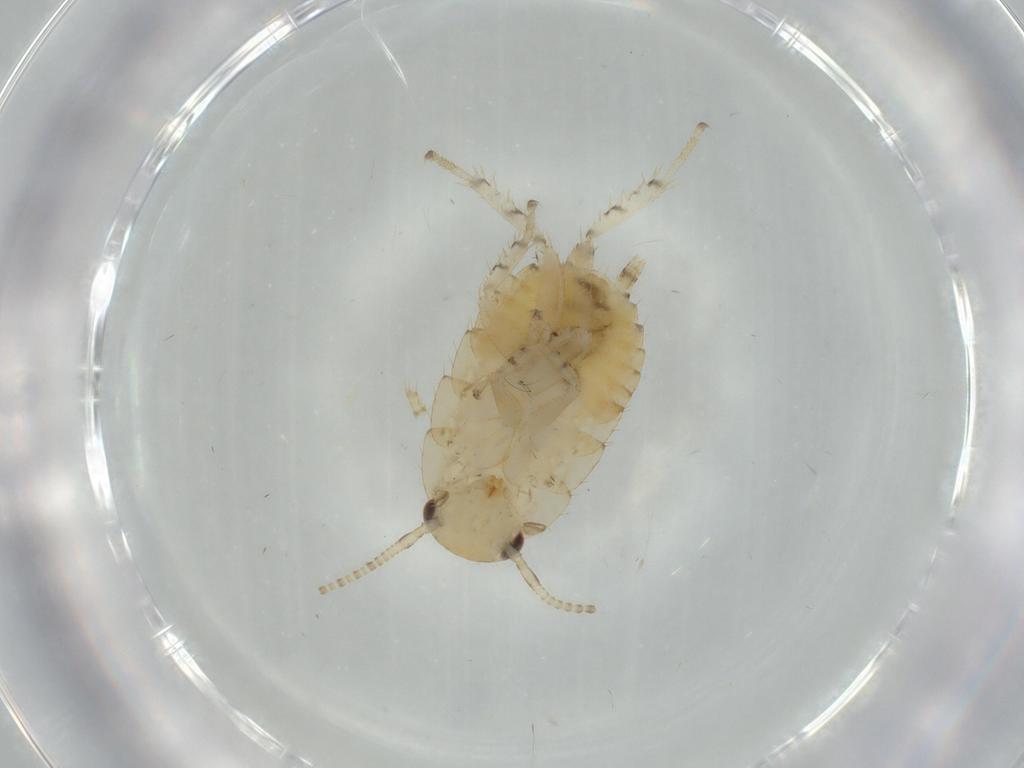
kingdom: Animalia
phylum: Arthropoda
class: Insecta
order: Blattodea
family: Ectobiidae
